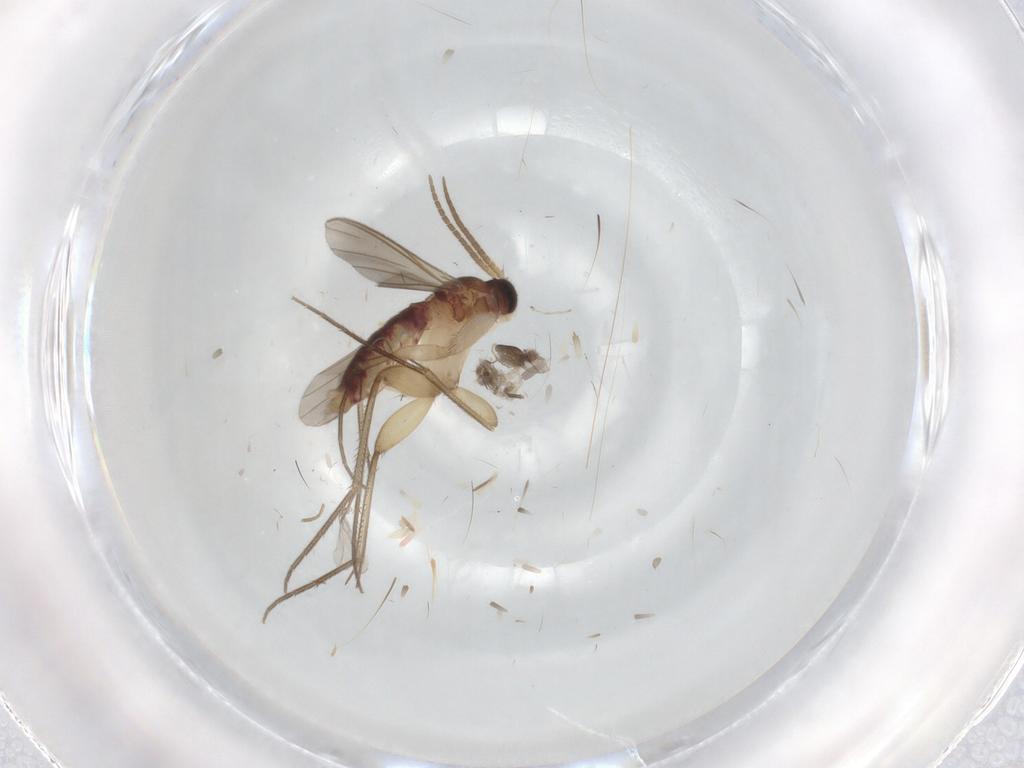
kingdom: Animalia
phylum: Arthropoda
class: Insecta
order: Diptera
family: Mycetophilidae
